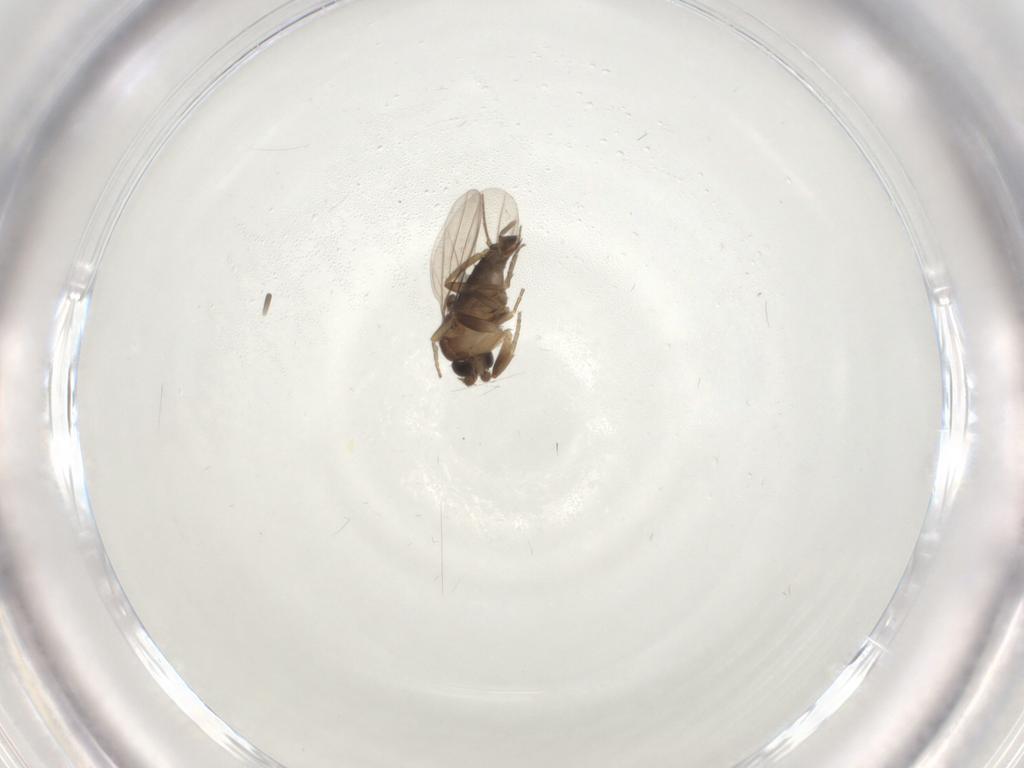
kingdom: Animalia
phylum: Arthropoda
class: Insecta
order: Diptera
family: Phoridae
